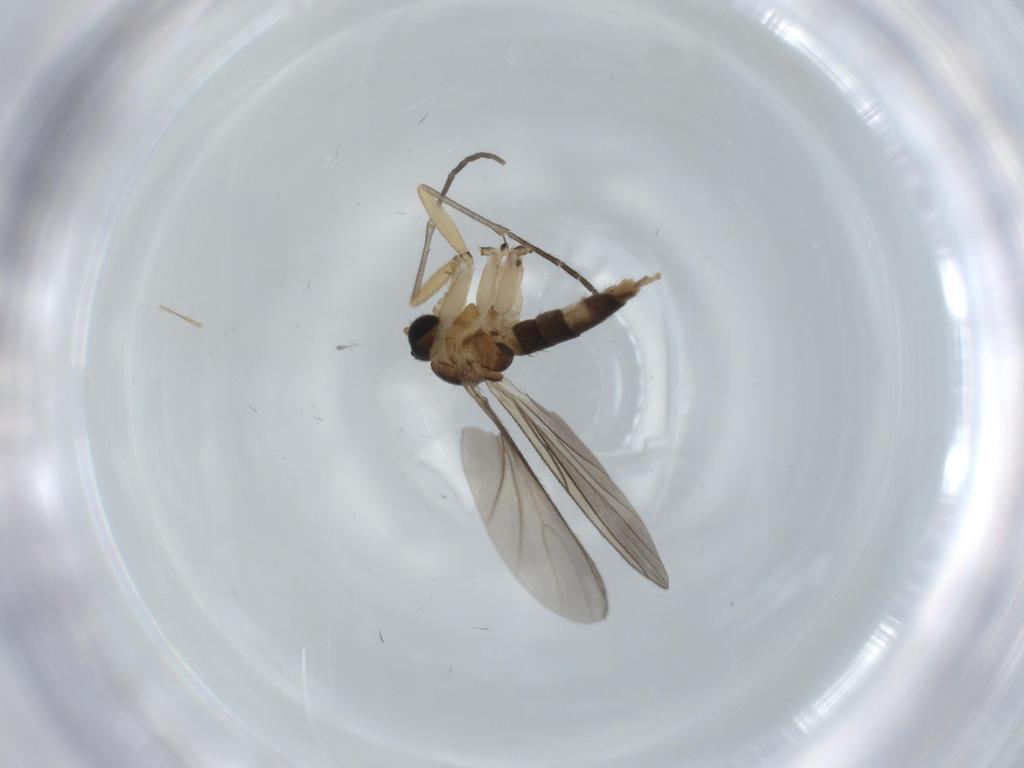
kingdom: Animalia
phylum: Arthropoda
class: Insecta
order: Diptera
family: Sciaridae
